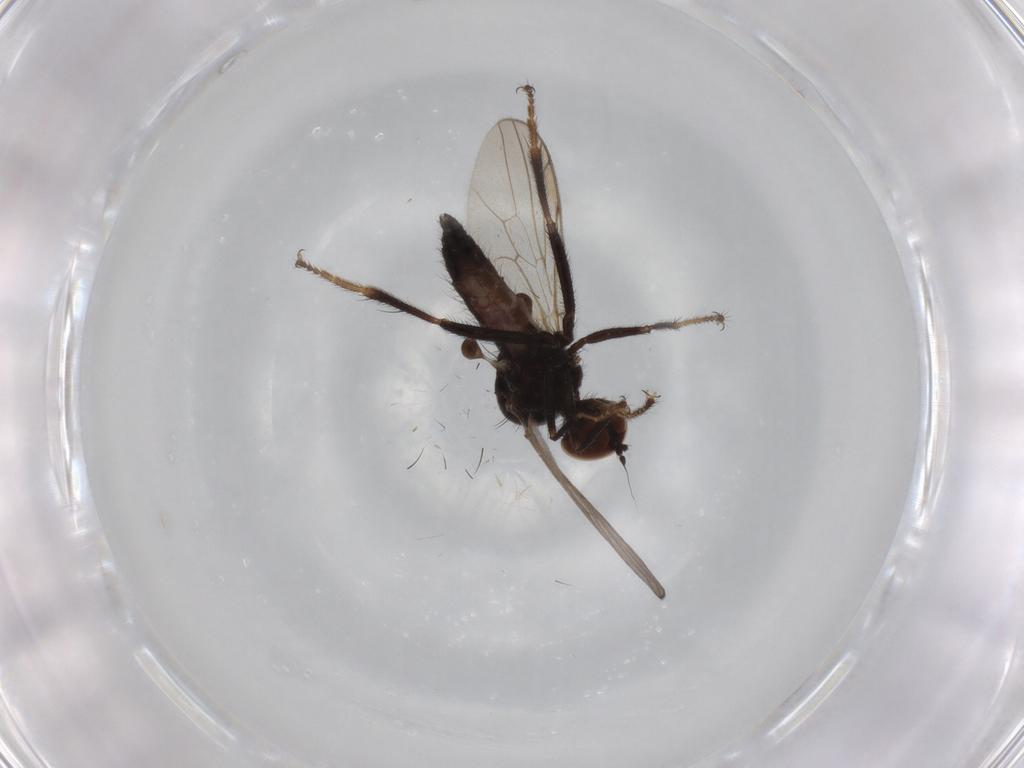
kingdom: Animalia
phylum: Arthropoda
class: Insecta
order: Diptera
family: Hybotidae
